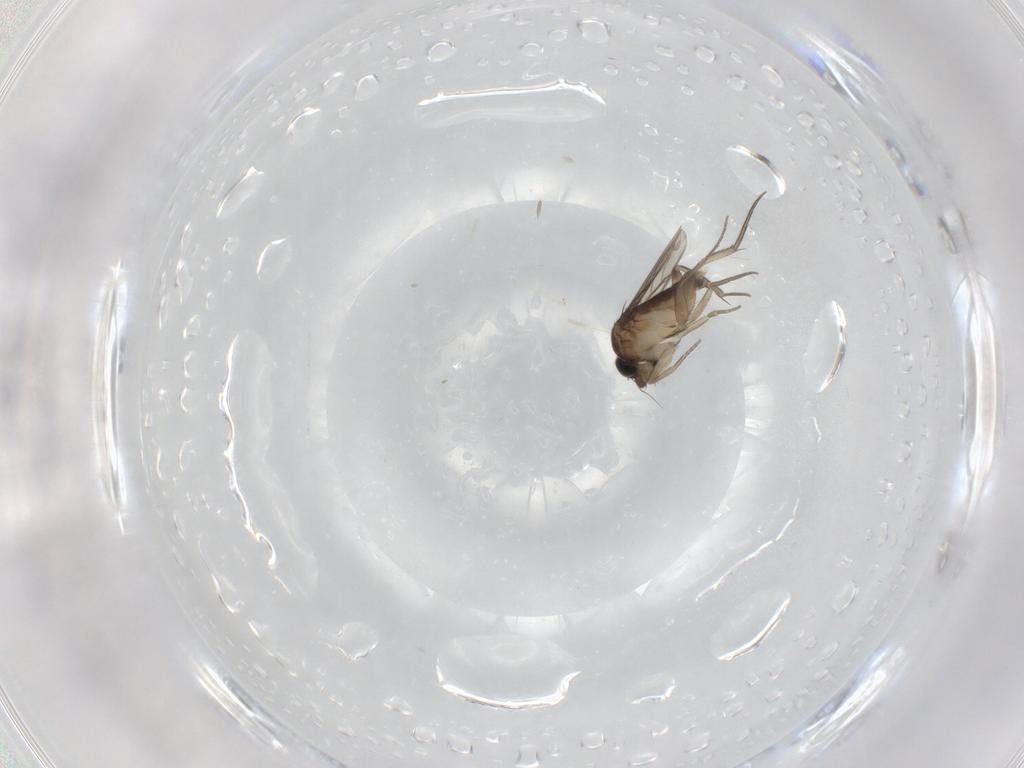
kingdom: Animalia
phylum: Arthropoda
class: Insecta
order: Diptera
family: Phoridae
